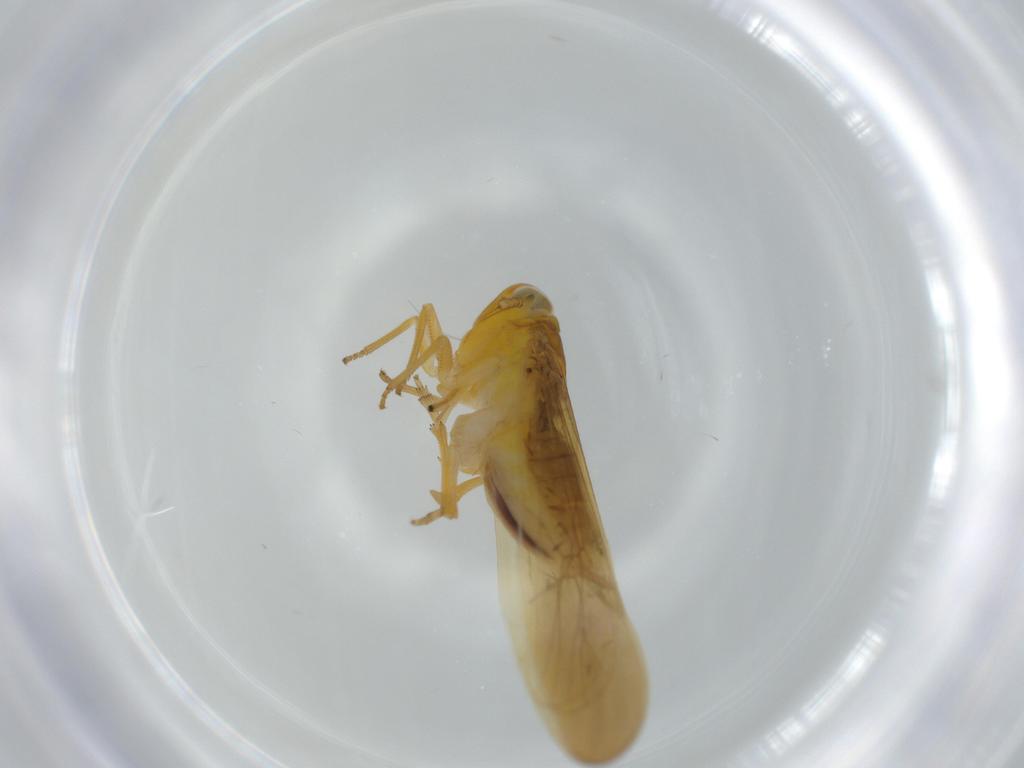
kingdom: Animalia
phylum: Arthropoda
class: Insecta
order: Hemiptera
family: Delphacidae
